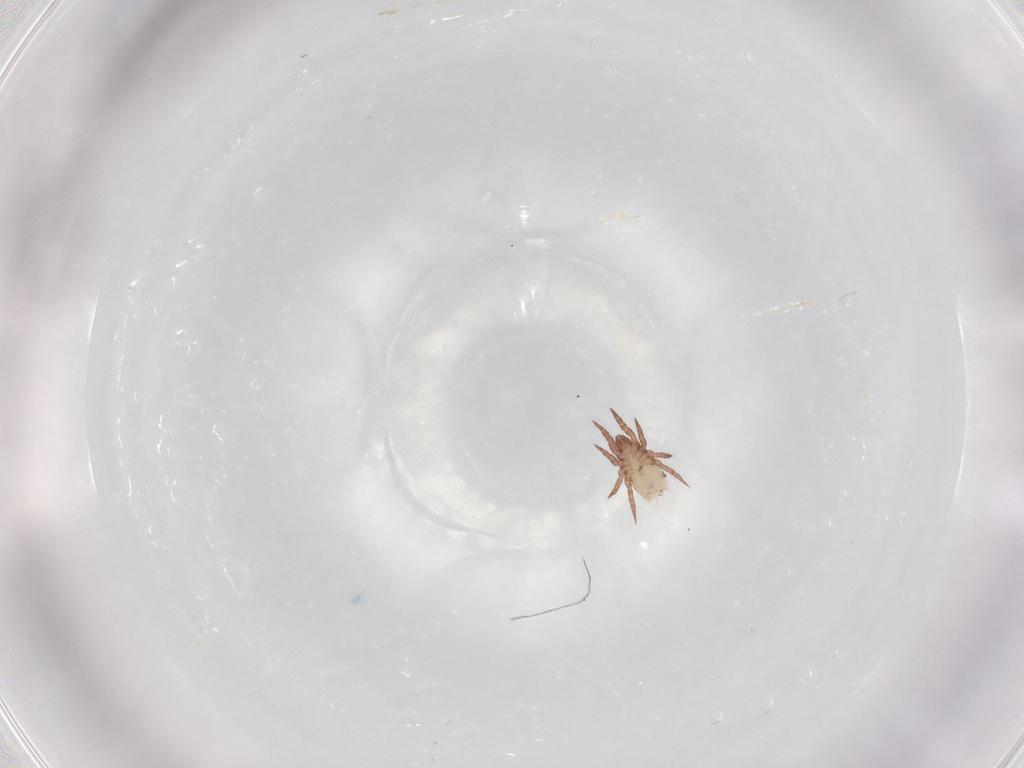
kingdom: Animalia
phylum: Arthropoda
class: Arachnida
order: Sarcoptiformes
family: Nothridae
